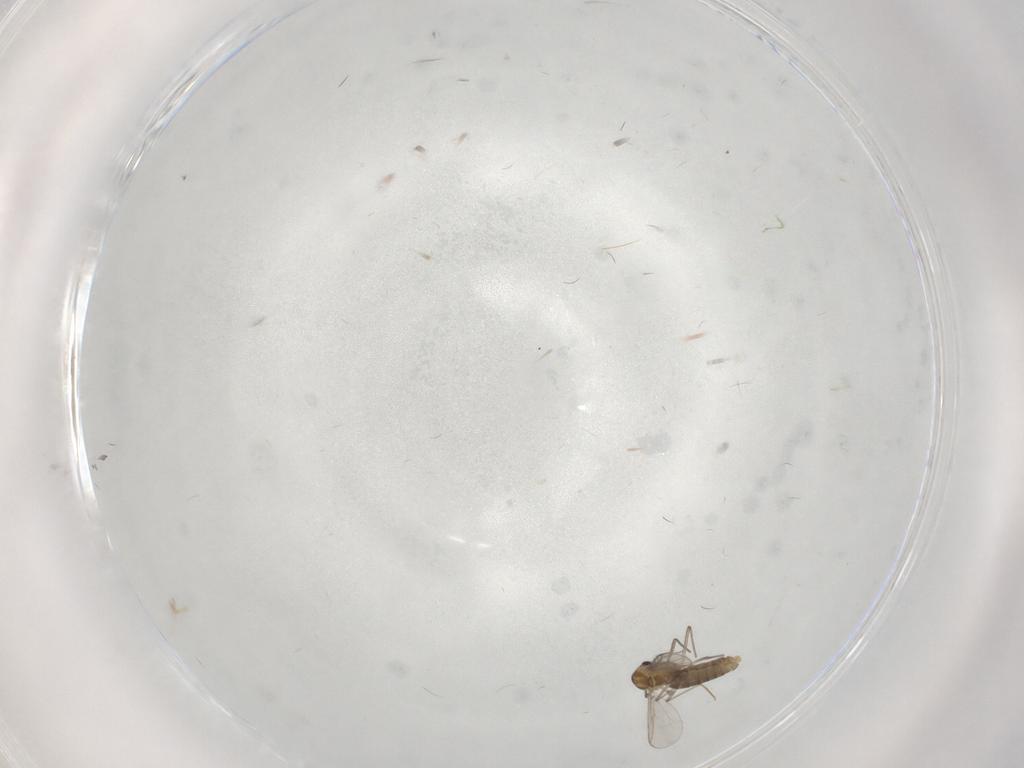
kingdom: Animalia
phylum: Arthropoda
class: Insecta
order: Diptera
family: Chironomidae
